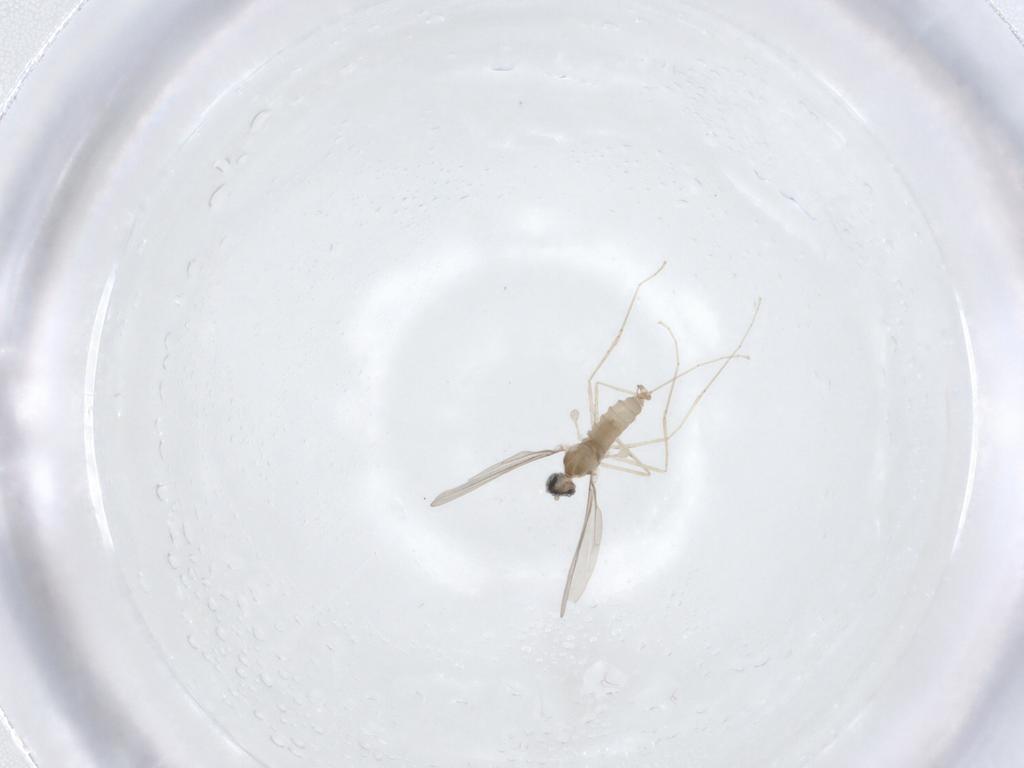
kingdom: Animalia
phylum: Arthropoda
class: Insecta
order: Diptera
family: Cecidomyiidae
